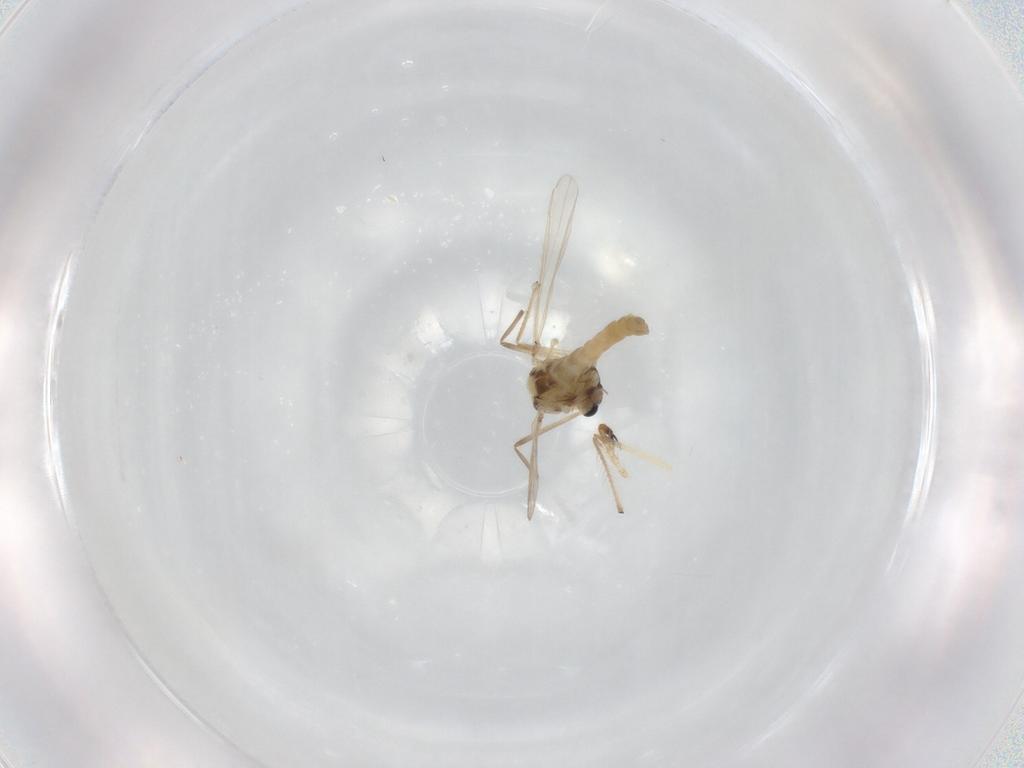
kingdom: Animalia
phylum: Arthropoda
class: Insecta
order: Diptera
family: Chironomidae
